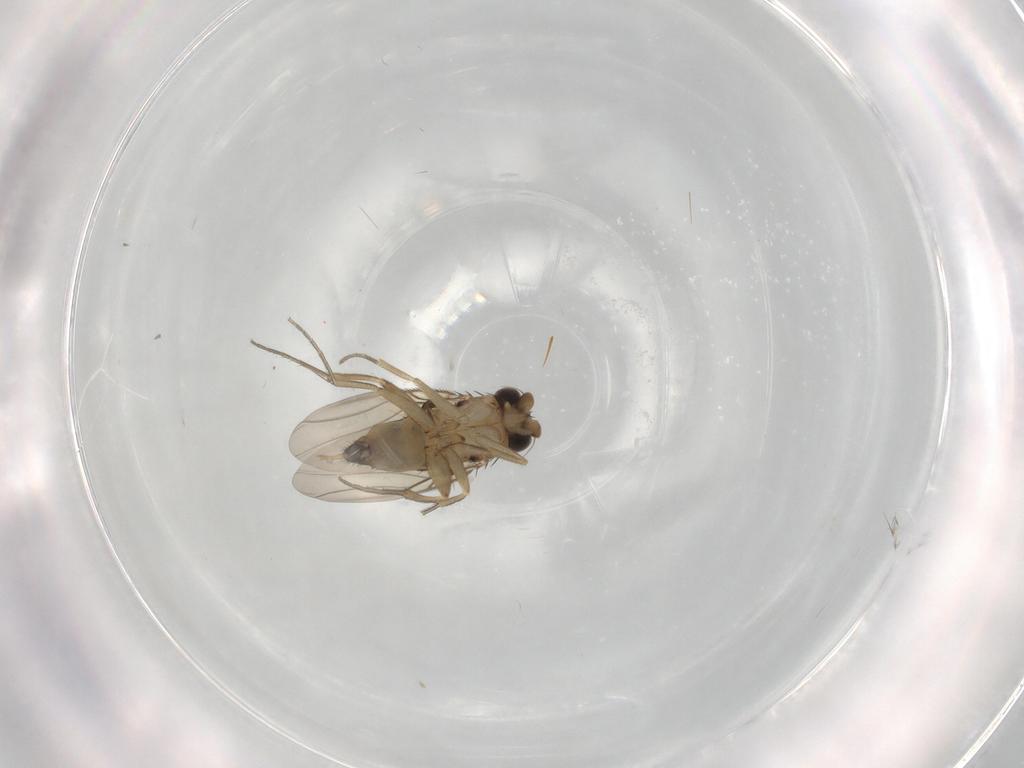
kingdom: Animalia
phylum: Arthropoda
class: Insecta
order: Diptera
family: Phoridae
